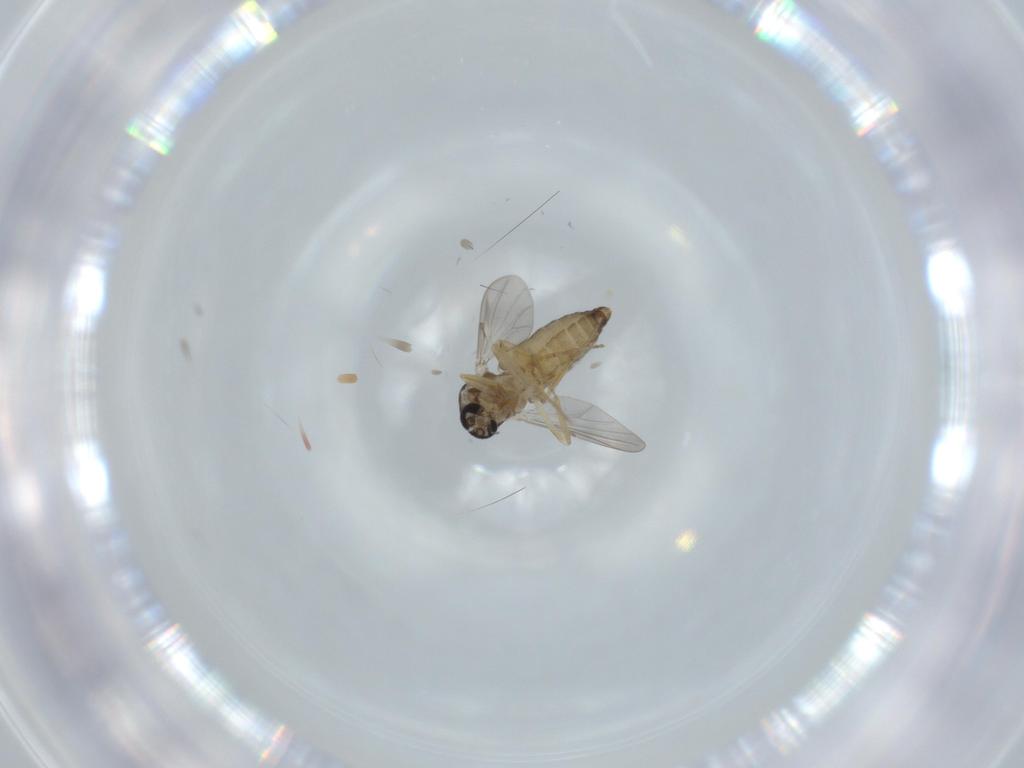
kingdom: Animalia
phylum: Arthropoda
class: Insecta
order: Diptera
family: Ceratopogonidae
